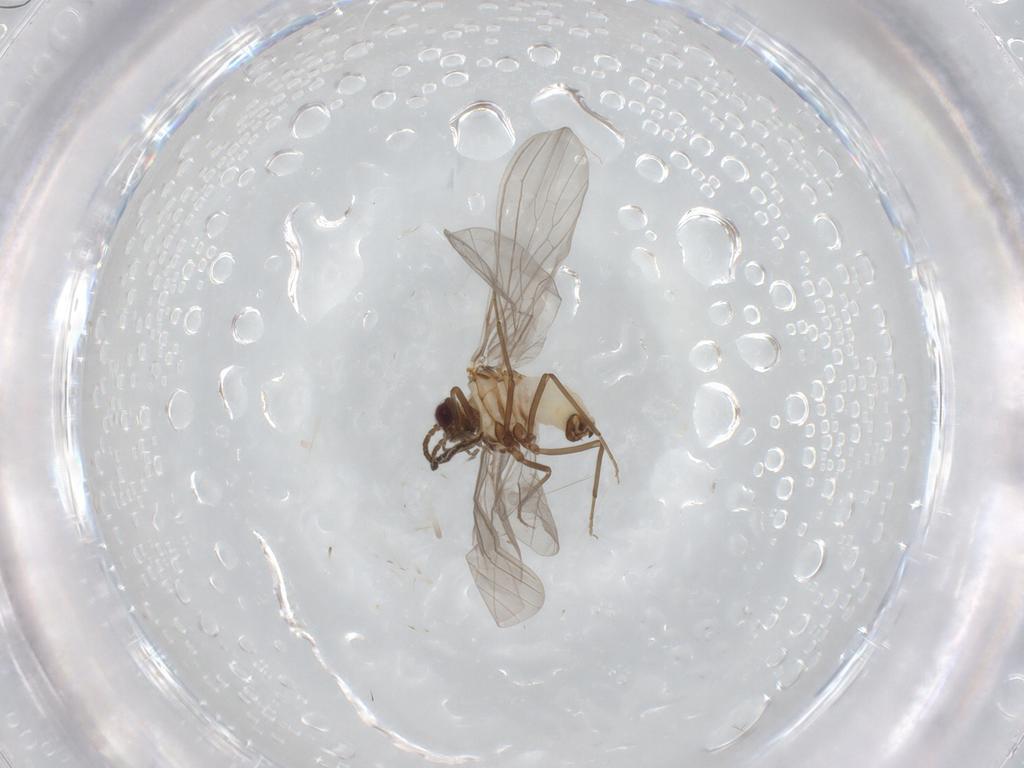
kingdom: Animalia
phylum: Arthropoda
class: Insecta
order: Neuroptera
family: Coniopterygidae
